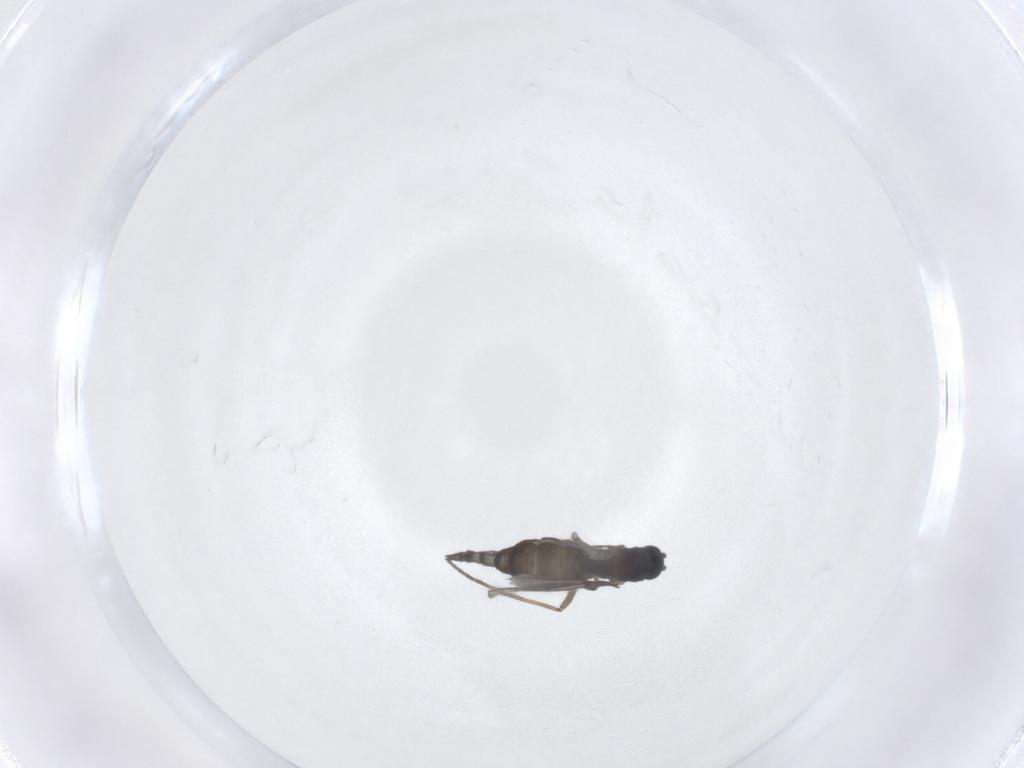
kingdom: Animalia
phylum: Arthropoda
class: Insecta
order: Diptera
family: Sciaridae
